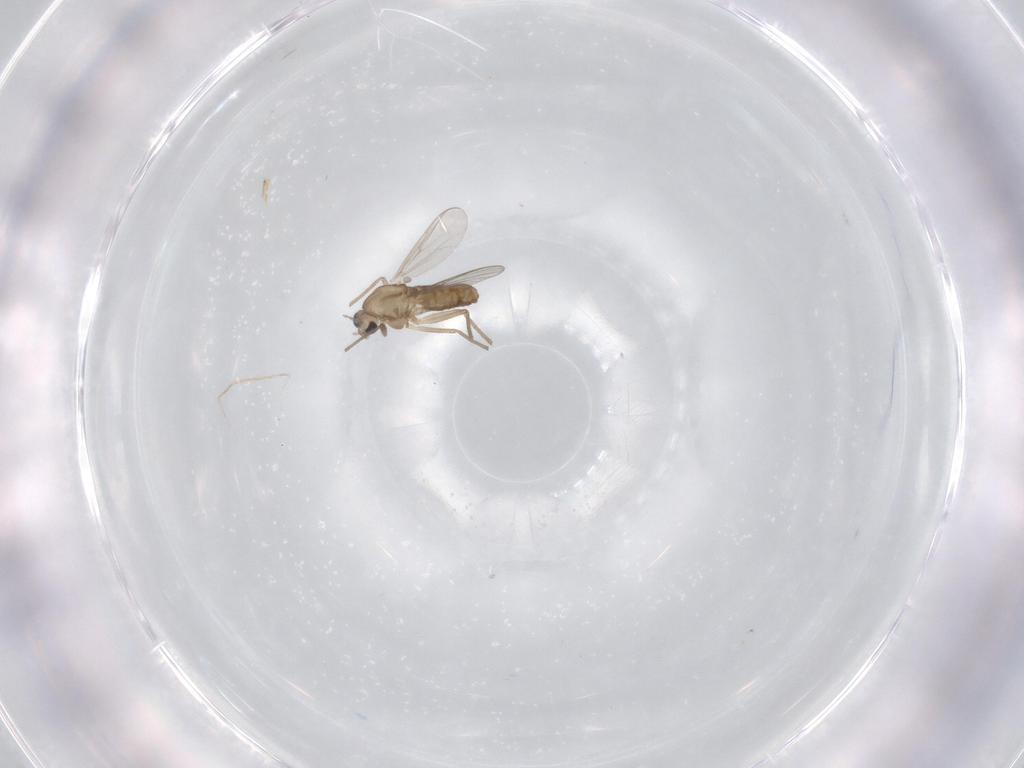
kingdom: Animalia
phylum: Arthropoda
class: Insecta
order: Diptera
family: Chironomidae
